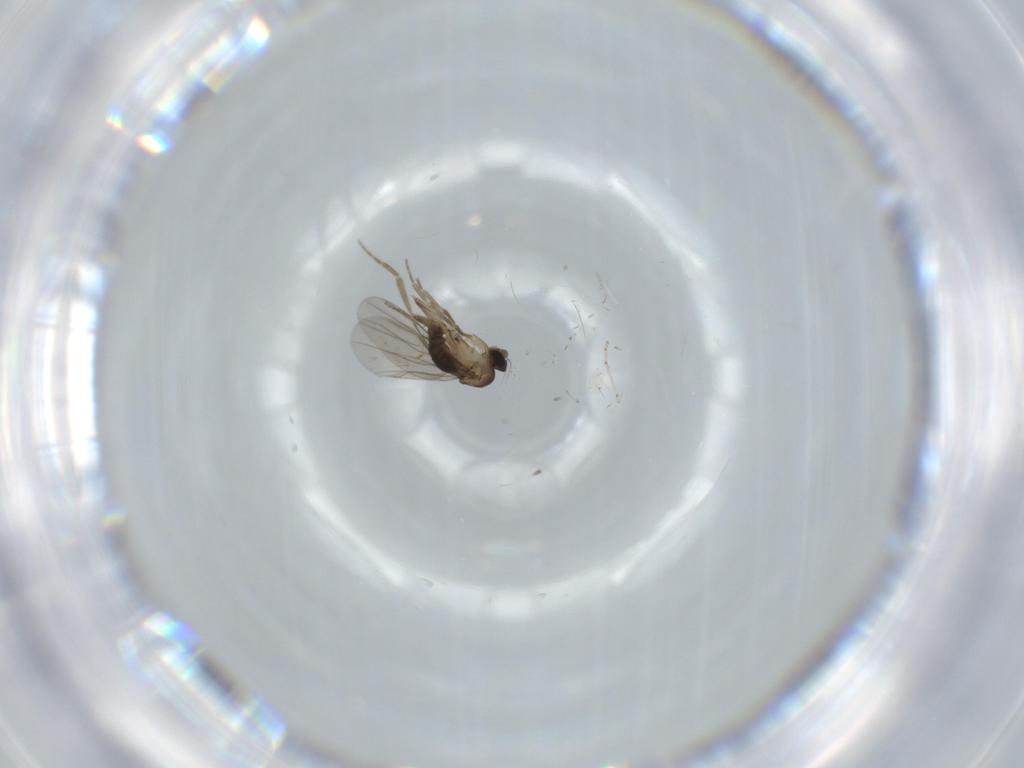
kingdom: Animalia
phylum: Arthropoda
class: Insecta
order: Diptera
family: Phoridae
